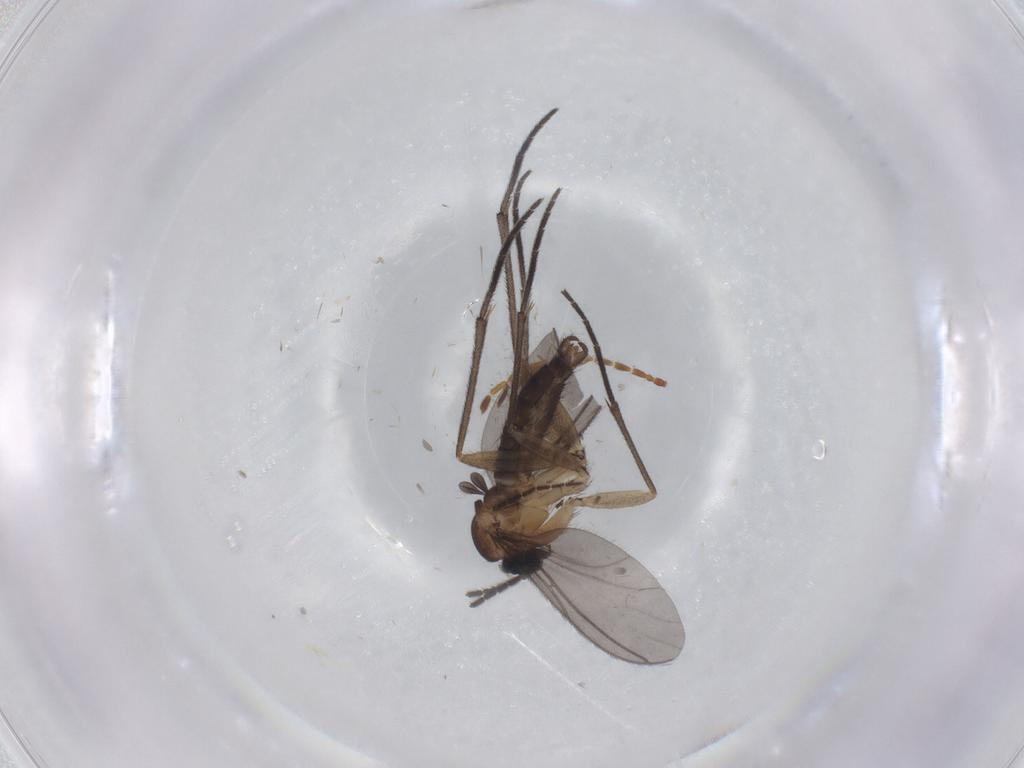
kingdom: Animalia
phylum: Arthropoda
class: Insecta
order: Diptera
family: Sciaridae
